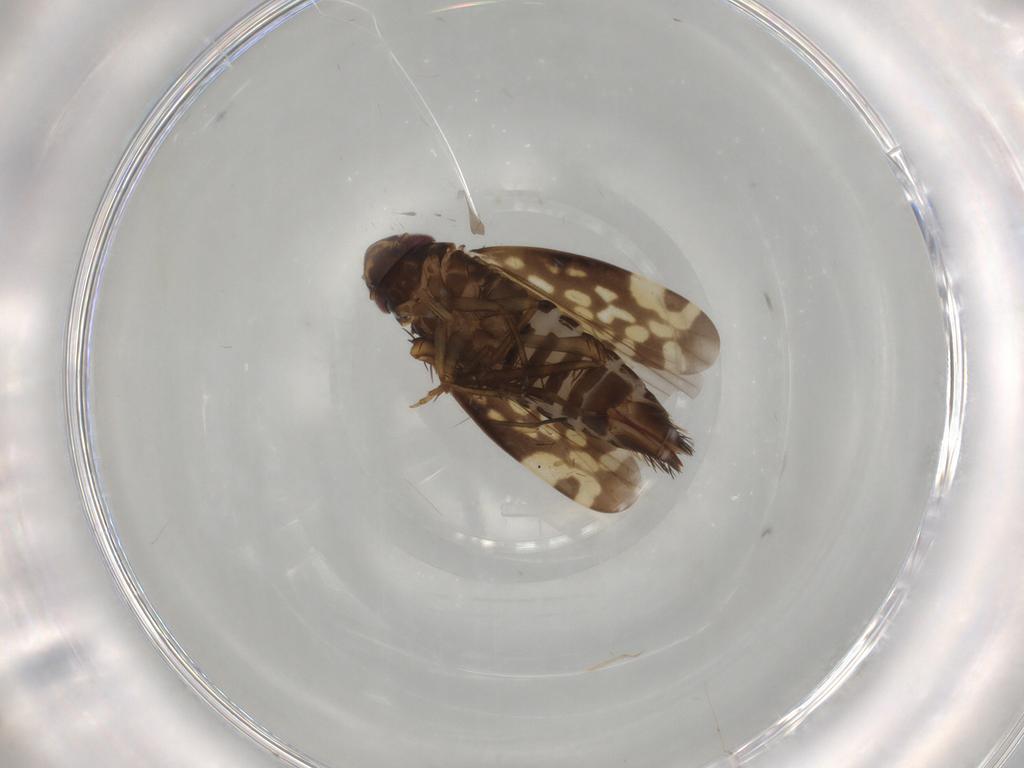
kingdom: Animalia
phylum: Arthropoda
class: Insecta
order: Hemiptera
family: Cicadellidae
